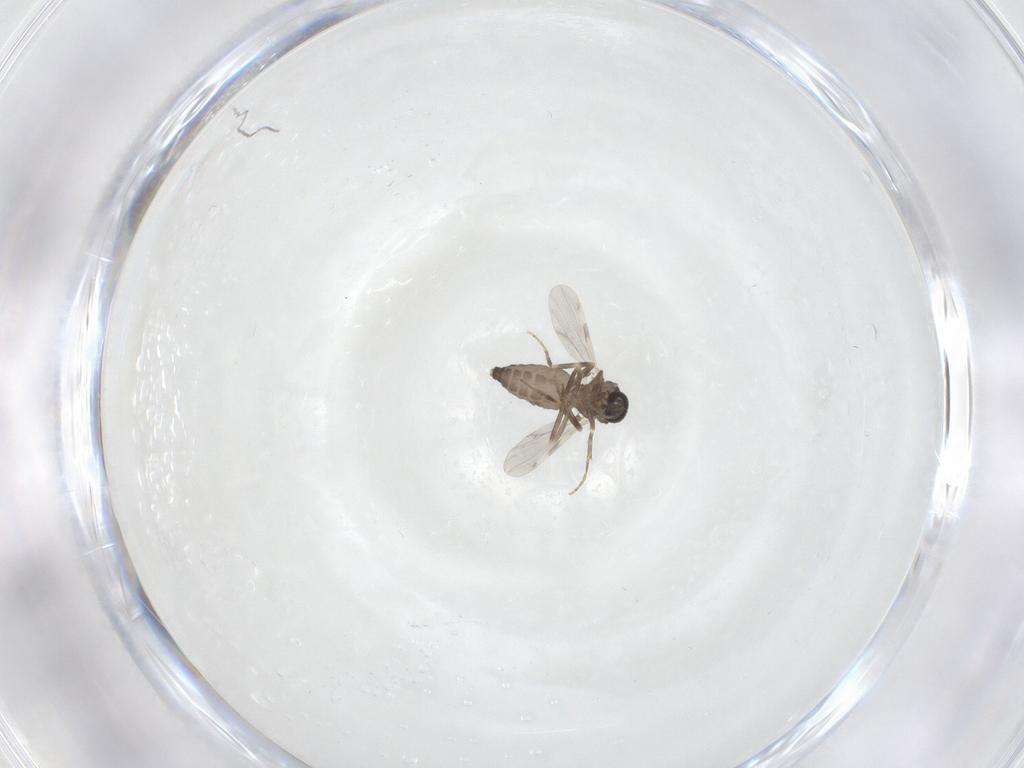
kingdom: Animalia
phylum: Arthropoda
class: Insecta
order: Diptera
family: Ceratopogonidae
